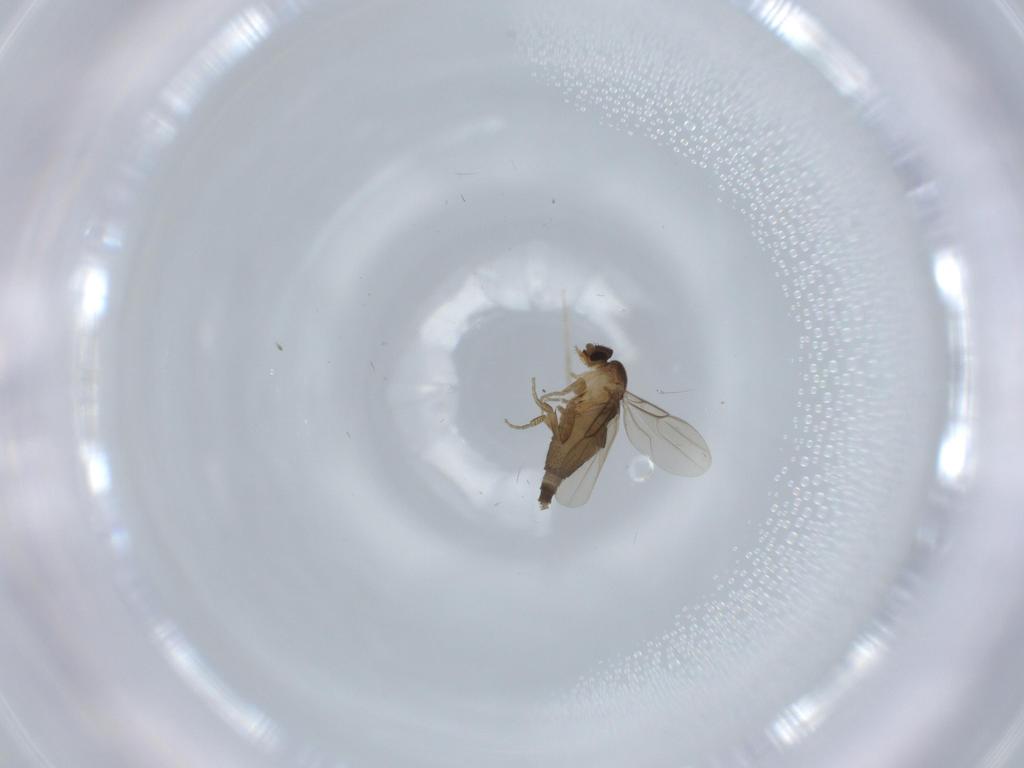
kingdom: Animalia
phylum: Arthropoda
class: Insecta
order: Diptera
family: Phoridae
